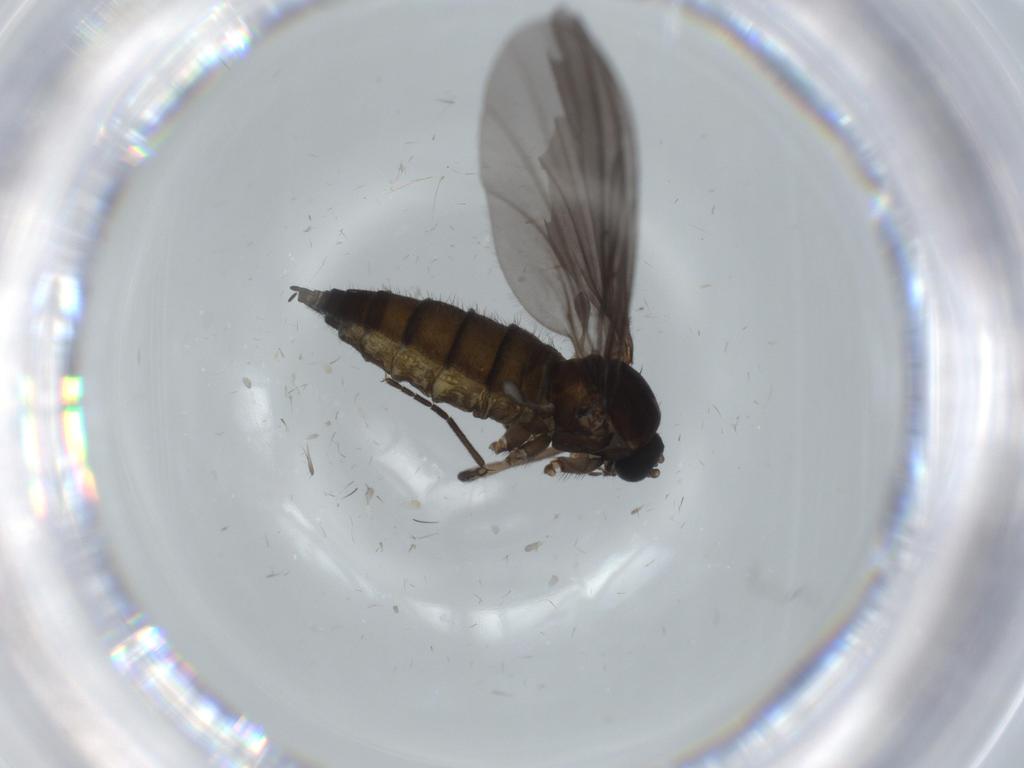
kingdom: Animalia
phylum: Arthropoda
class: Insecta
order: Diptera
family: Sciaridae
